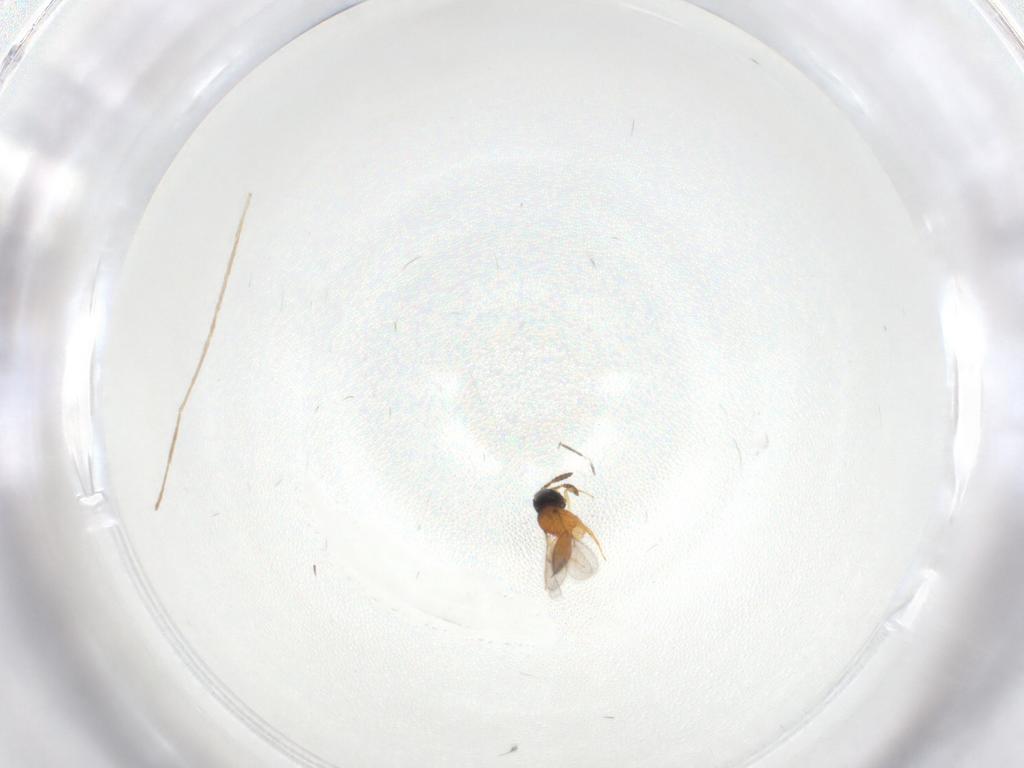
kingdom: Animalia
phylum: Arthropoda
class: Insecta
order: Hymenoptera
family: Scelionidae
